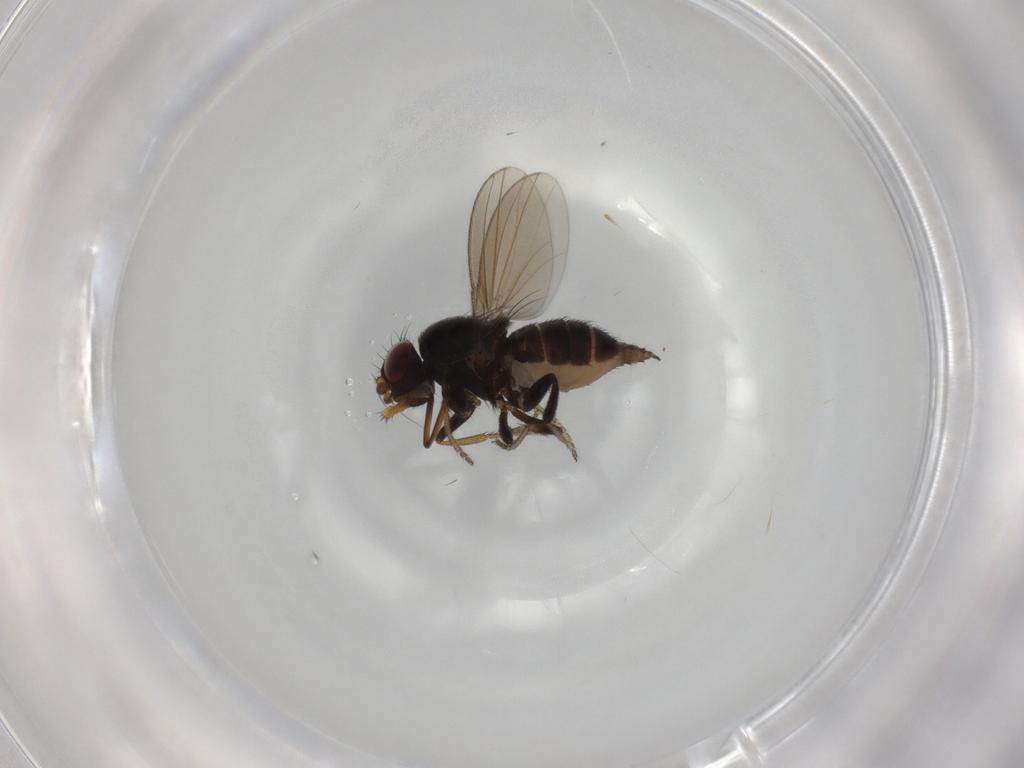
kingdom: Animalia
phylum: Arthropoda
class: Insecta
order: Diptera
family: Milichiidae
